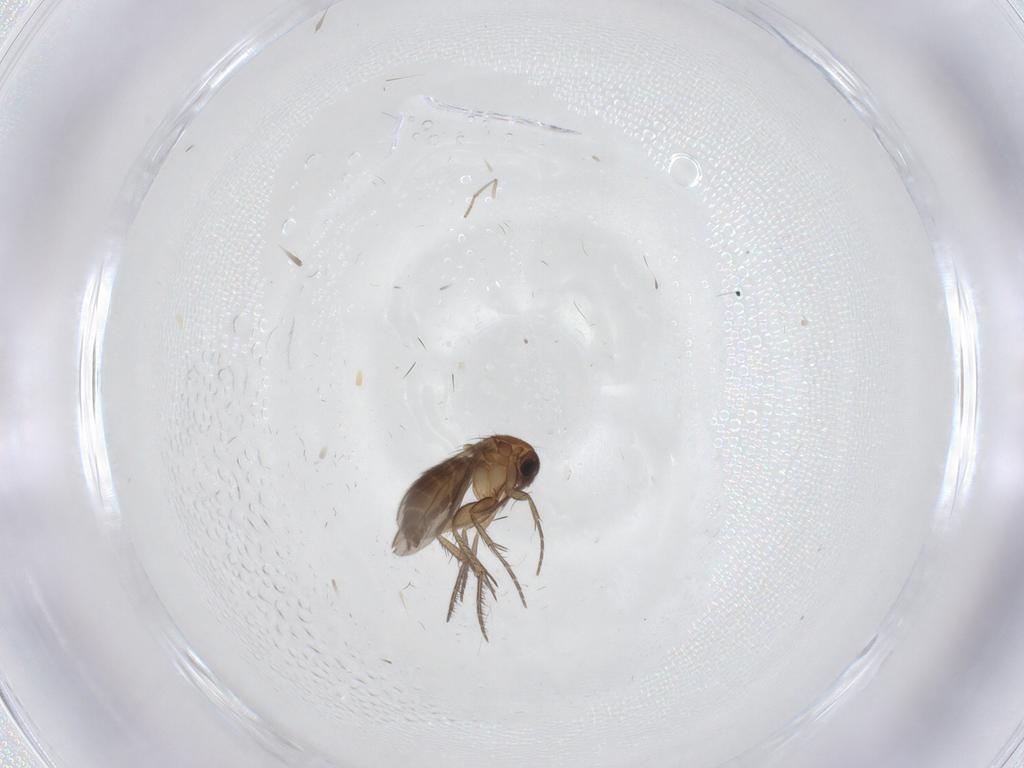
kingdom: Animalia
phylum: Arthropoda
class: Insecta
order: Diptera
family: Mycetophilidae
